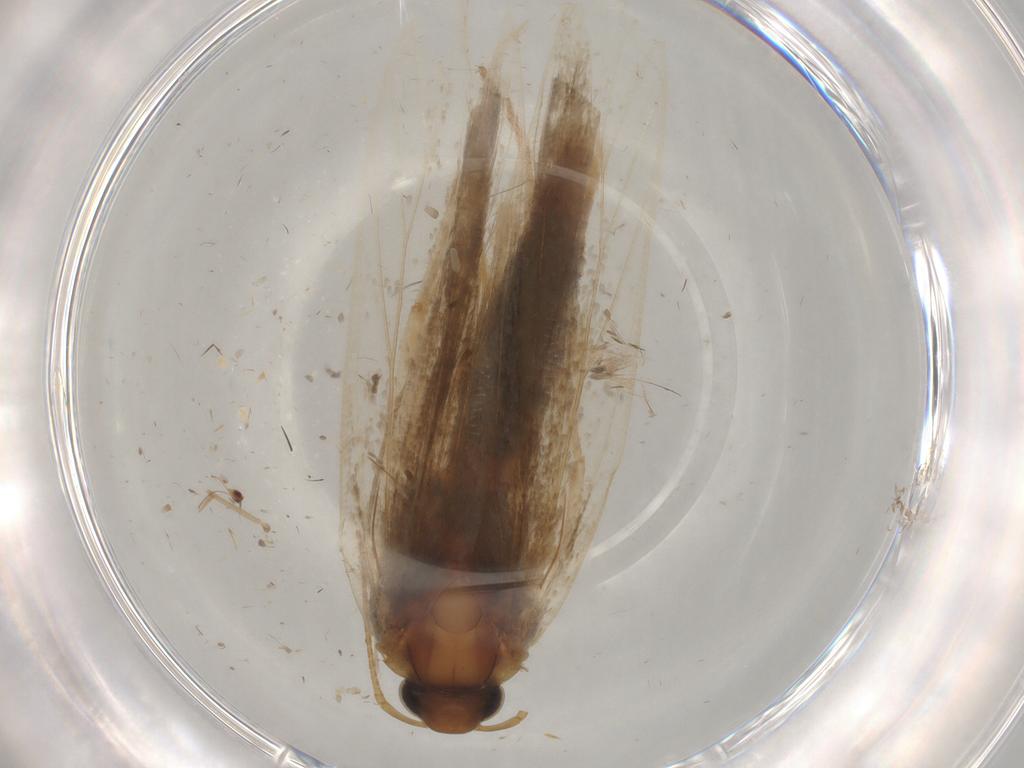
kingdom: Animalia
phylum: Arthropoda
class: Insecta
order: Lepidoptera
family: Gelechiidae
